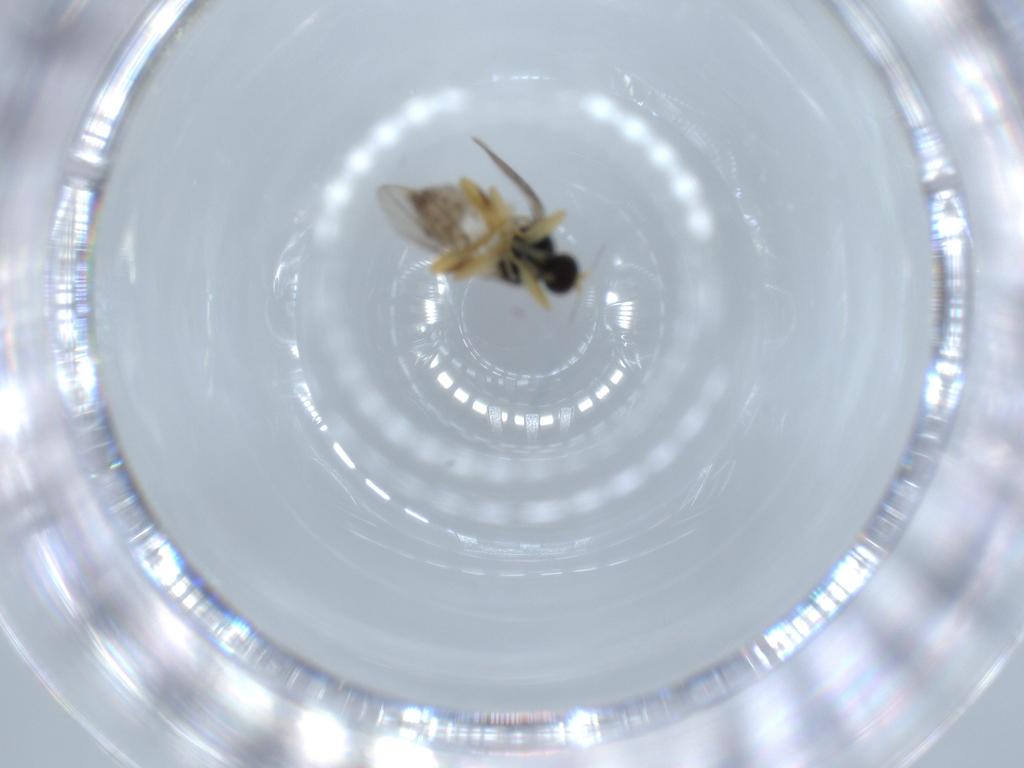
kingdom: Animalia
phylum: Arthropoda
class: Insecta
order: Diptera
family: Hybotidae
